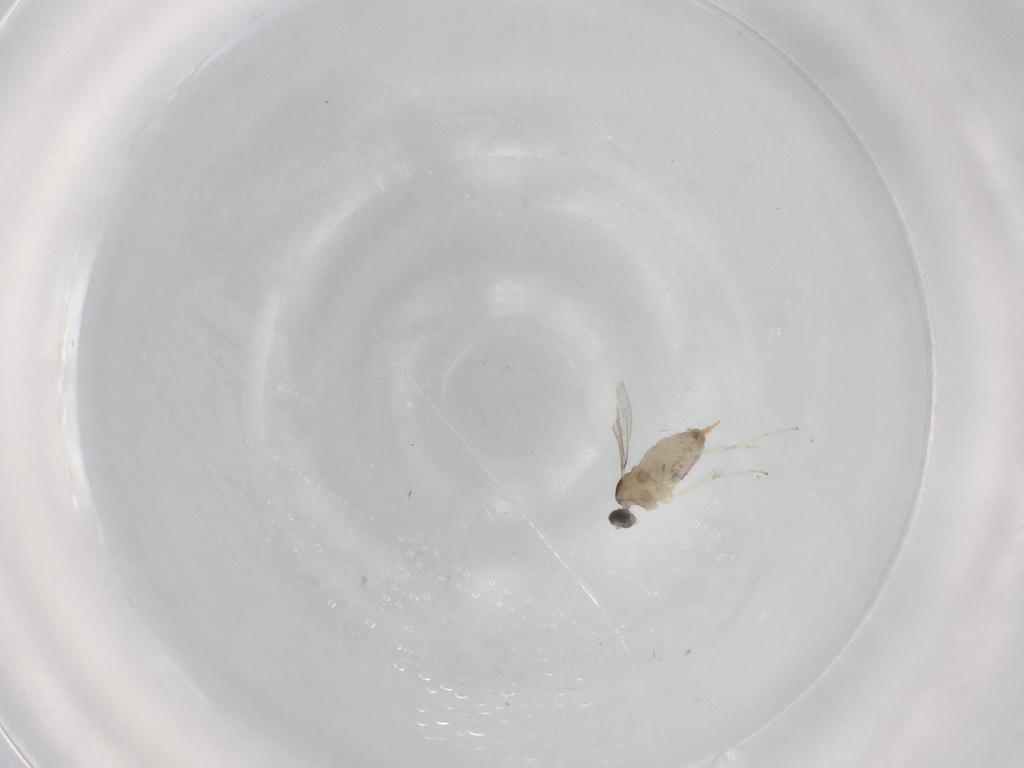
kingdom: Animalia
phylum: Arthropoda
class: Insecta
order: Diptera
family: Cecidomyiidae
